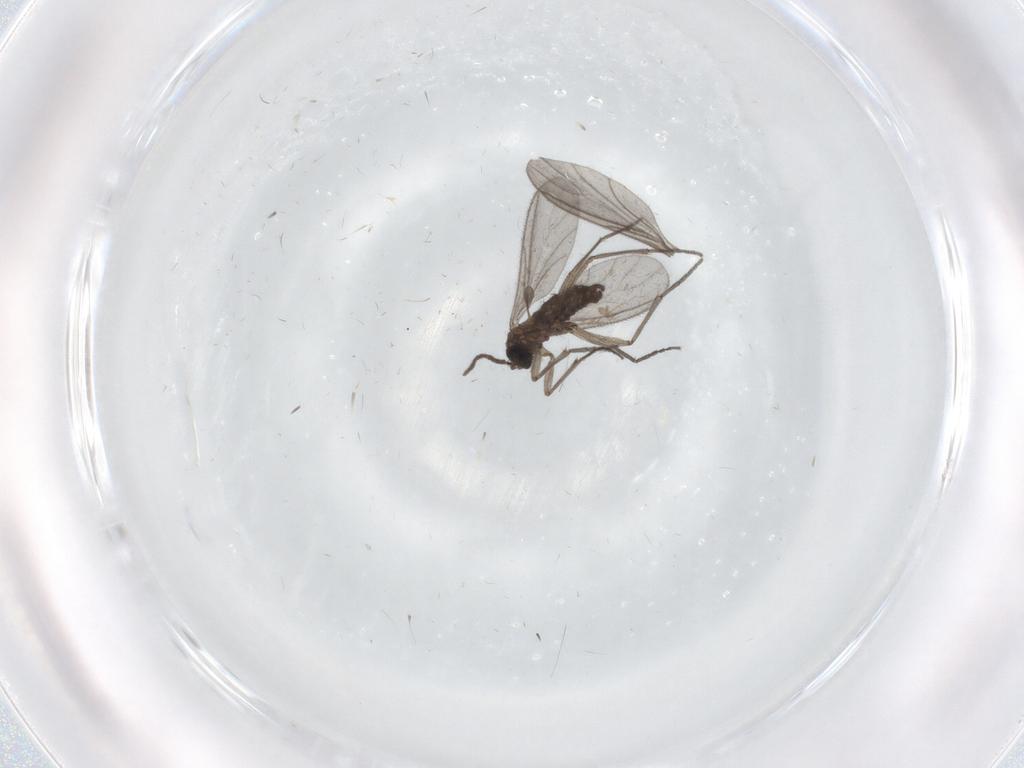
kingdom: Animalia
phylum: Arthropoda
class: Insecta
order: Diptera
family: Sciaridae
